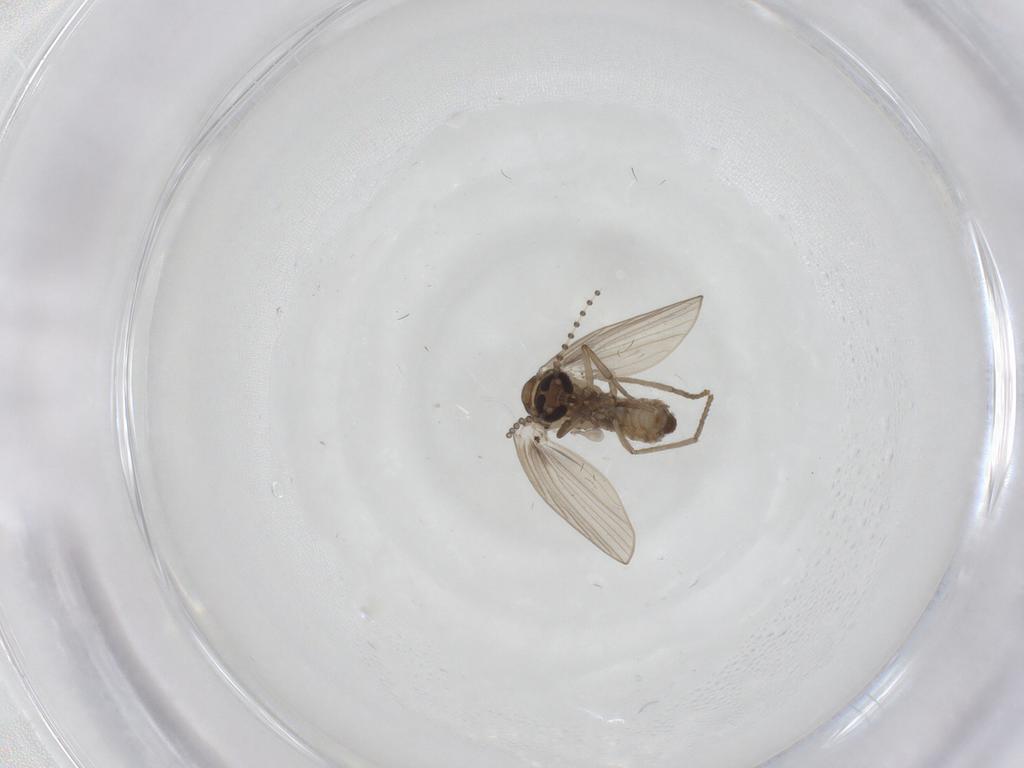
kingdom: Animalia
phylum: Arthropoda
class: Insecta
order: Diptera
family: Psychodidae
